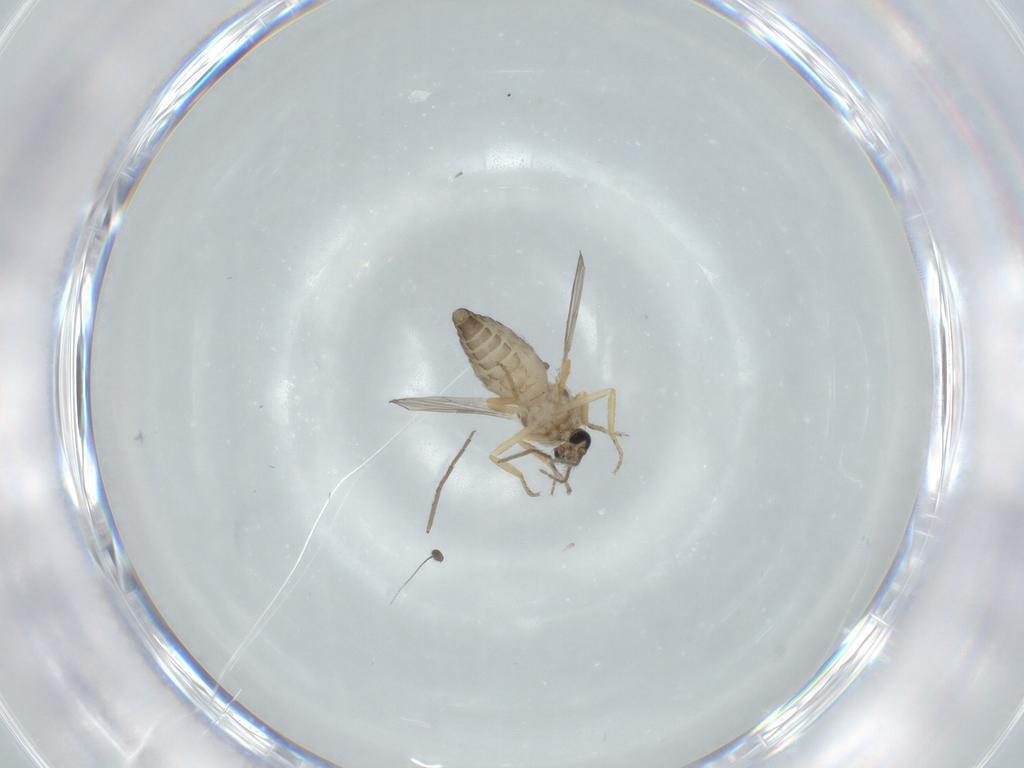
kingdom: Animalia
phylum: Arthropoda
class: Insecta
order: Diptera
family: Ceratopogonidae
